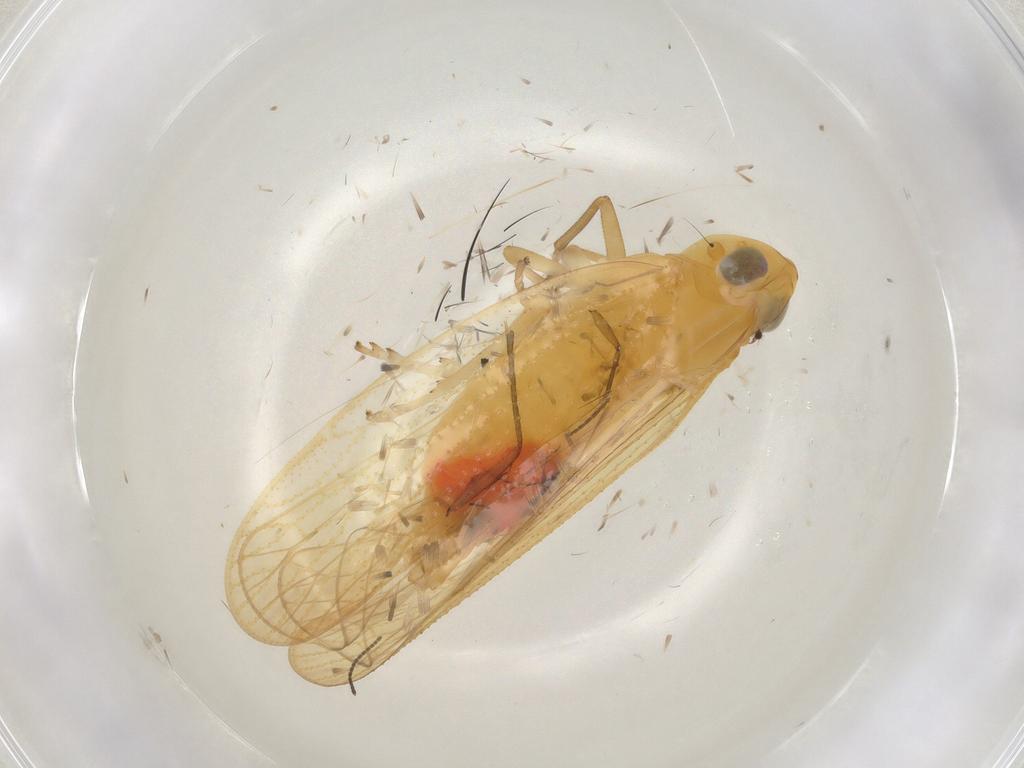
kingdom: Animalia
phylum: Arthropoda
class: Insecta
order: Hemiptera
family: Cixiidae
